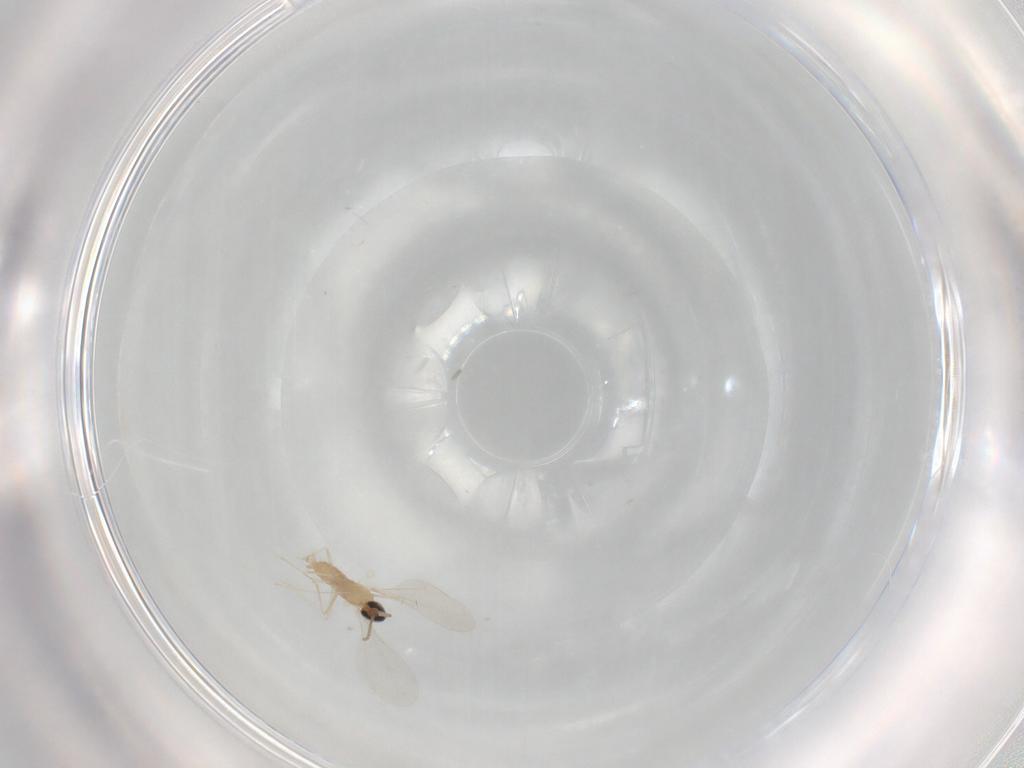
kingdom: Animalia
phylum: Arthropoda
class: Insecta
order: Diptera
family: Cecidomyiidae
